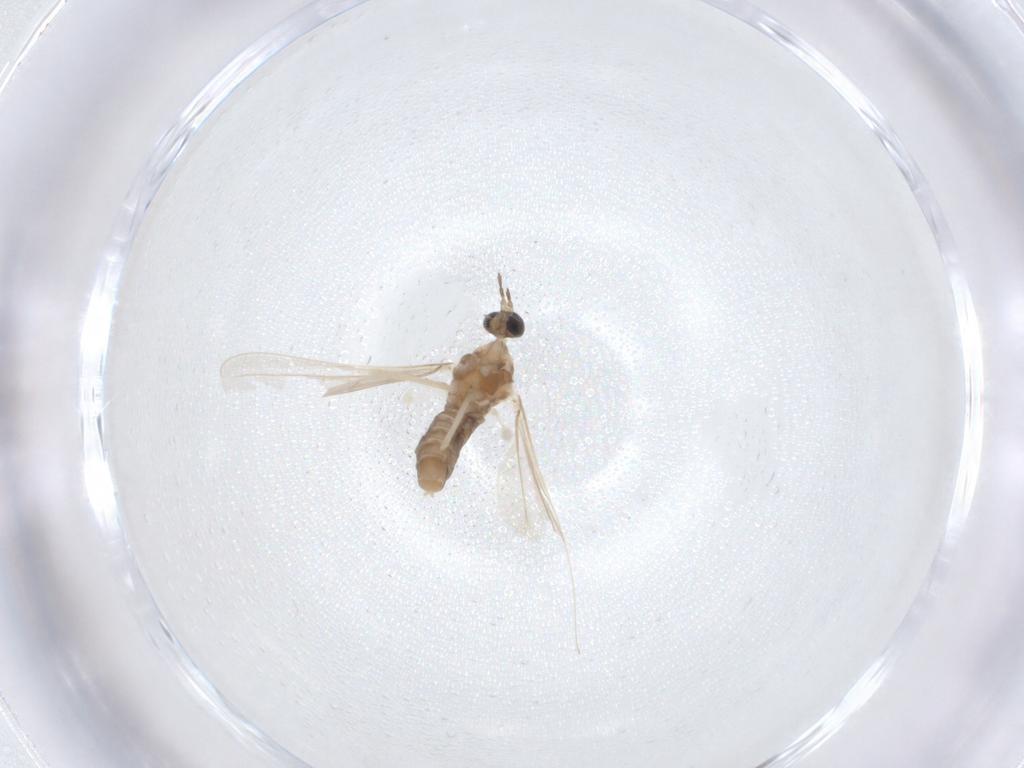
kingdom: Animalia
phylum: Arthropoda
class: Insecta
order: Diptera
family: Cecidomyiidae
